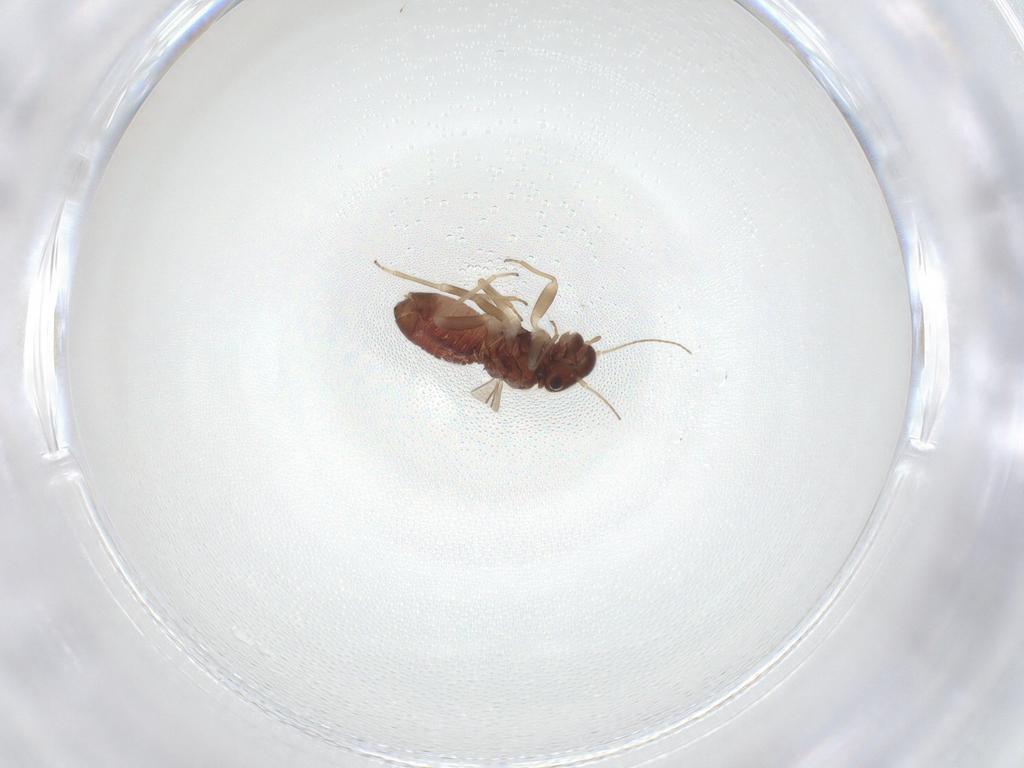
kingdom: Animalia
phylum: Arthropoda
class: Insecta
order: Psocodea
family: Archipsocidae
